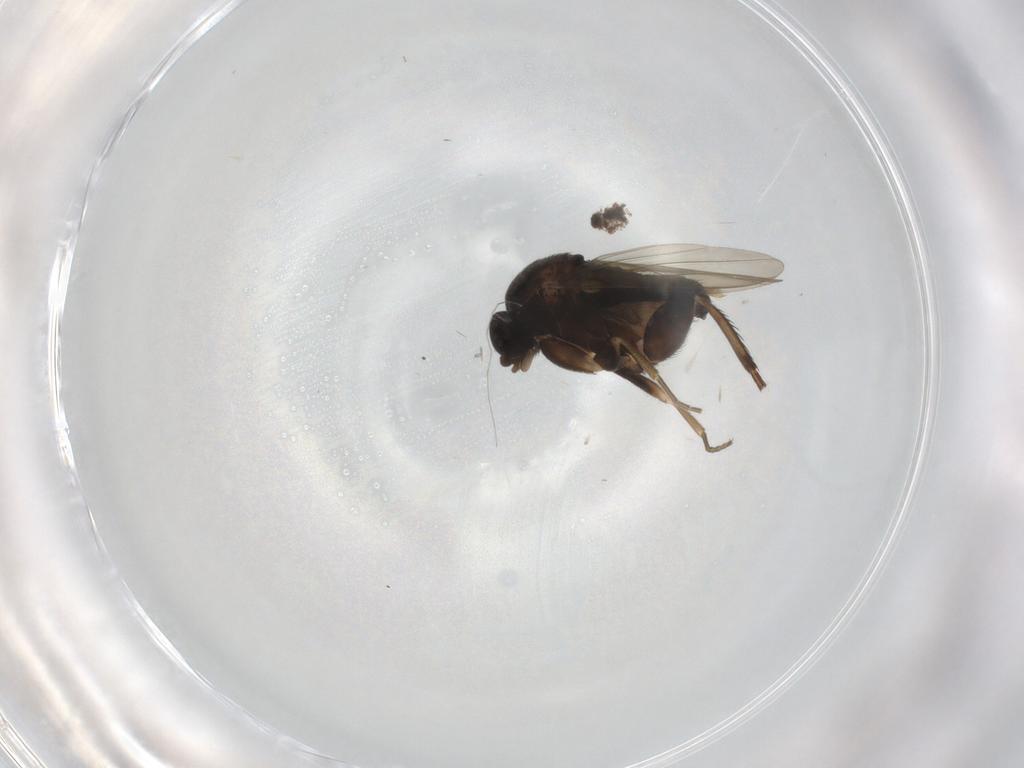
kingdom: Animalia
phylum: Arthropoda
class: Insecta
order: Diptera
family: Phoridae
